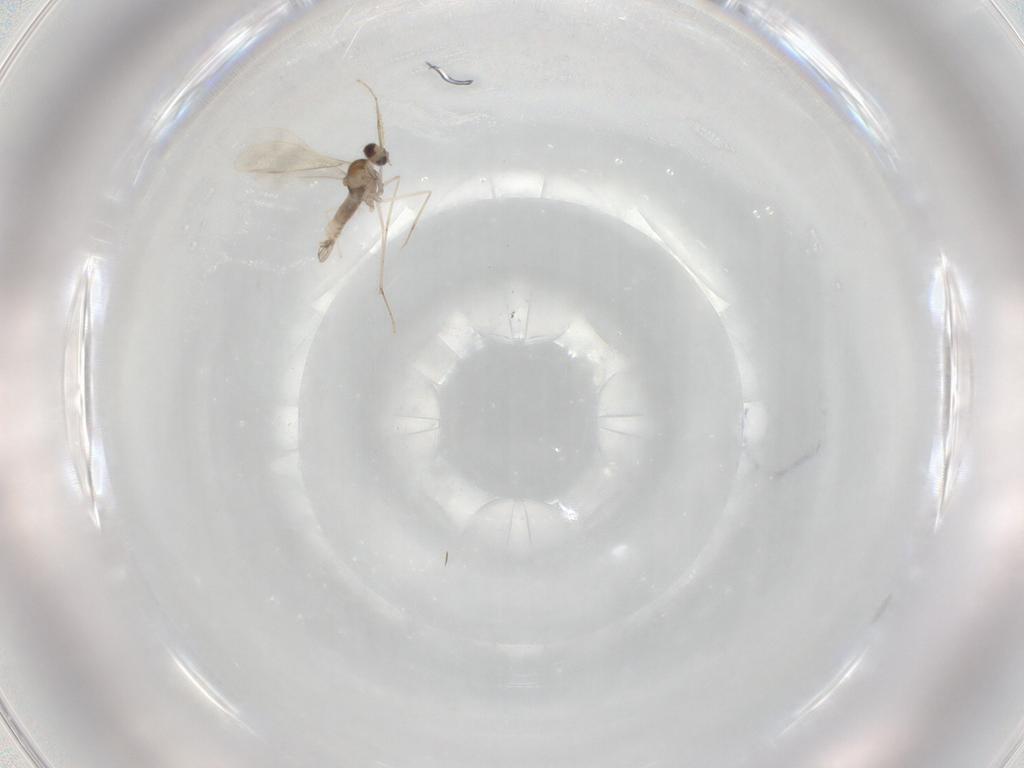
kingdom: Animalia
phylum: Arthropoda
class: Insecta
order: Diptera
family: Cecidomyiidae
